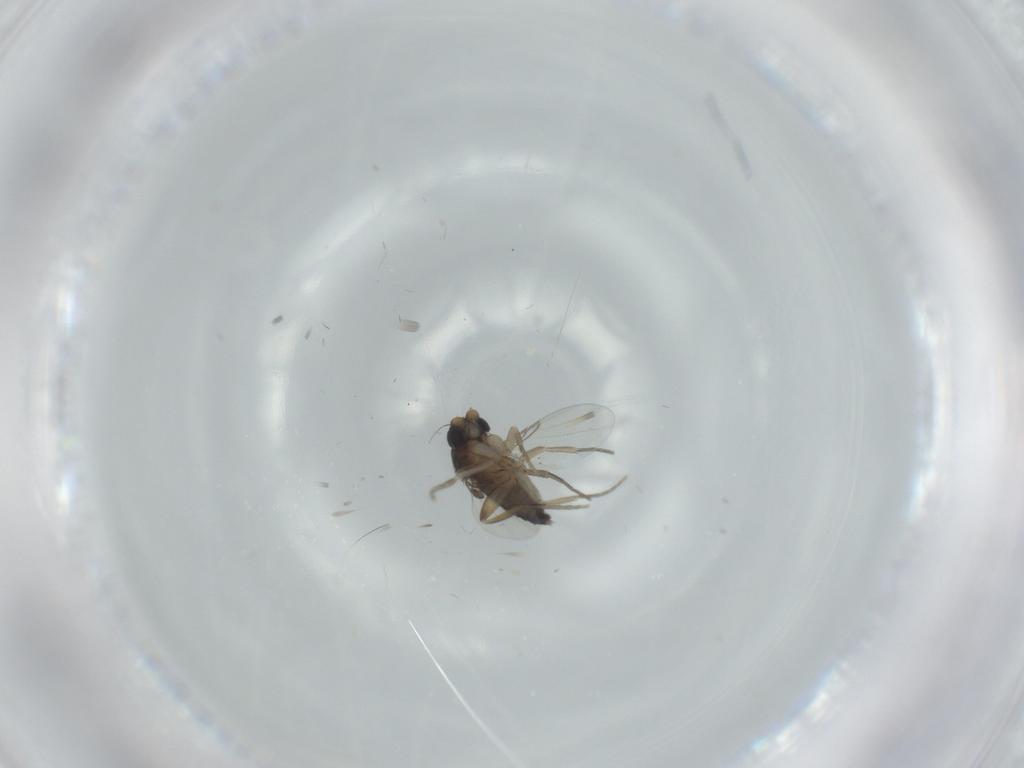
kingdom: Animalia
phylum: Arthropoda
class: Insecta
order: Diptera
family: Phoridae
